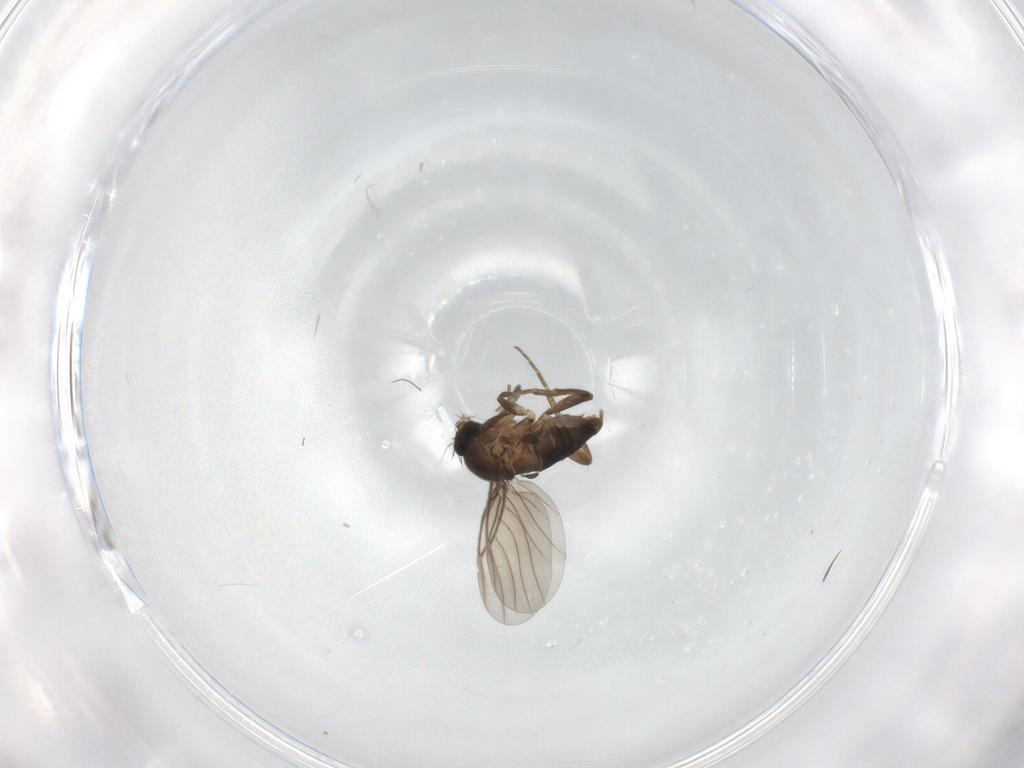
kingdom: Animalia
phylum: Arthropoda
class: Insecta
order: Diptera
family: Phoridae
